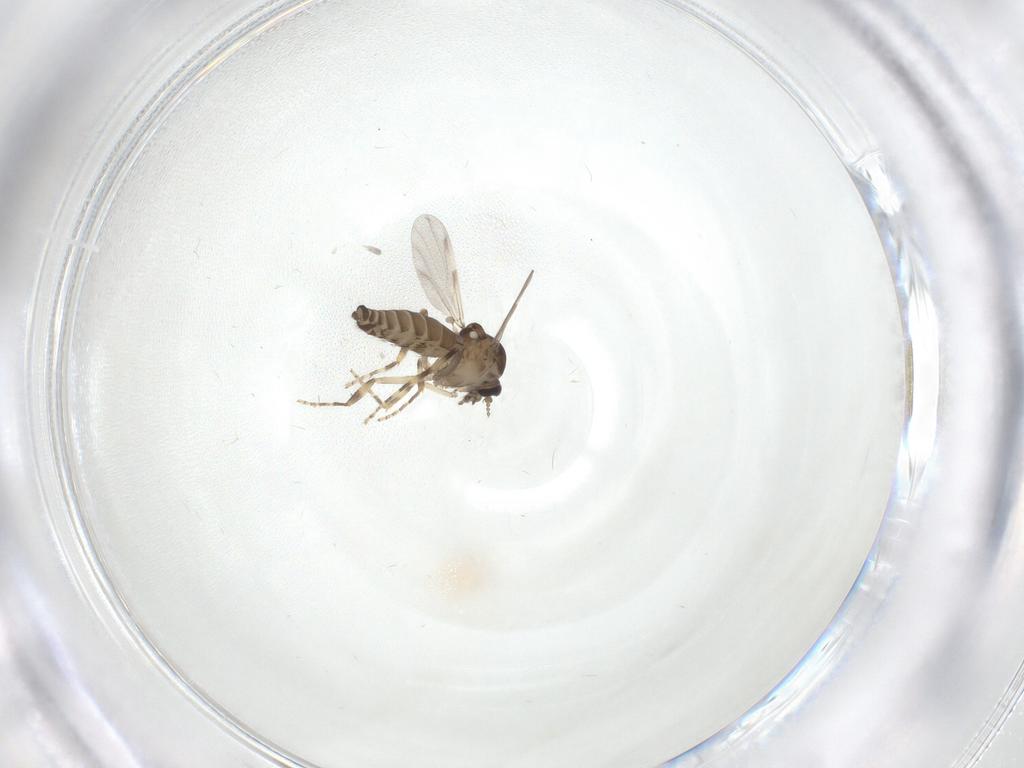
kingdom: Animalia
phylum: Arthropoda
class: Insecta
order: Diptera
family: Ceratopogonidae
